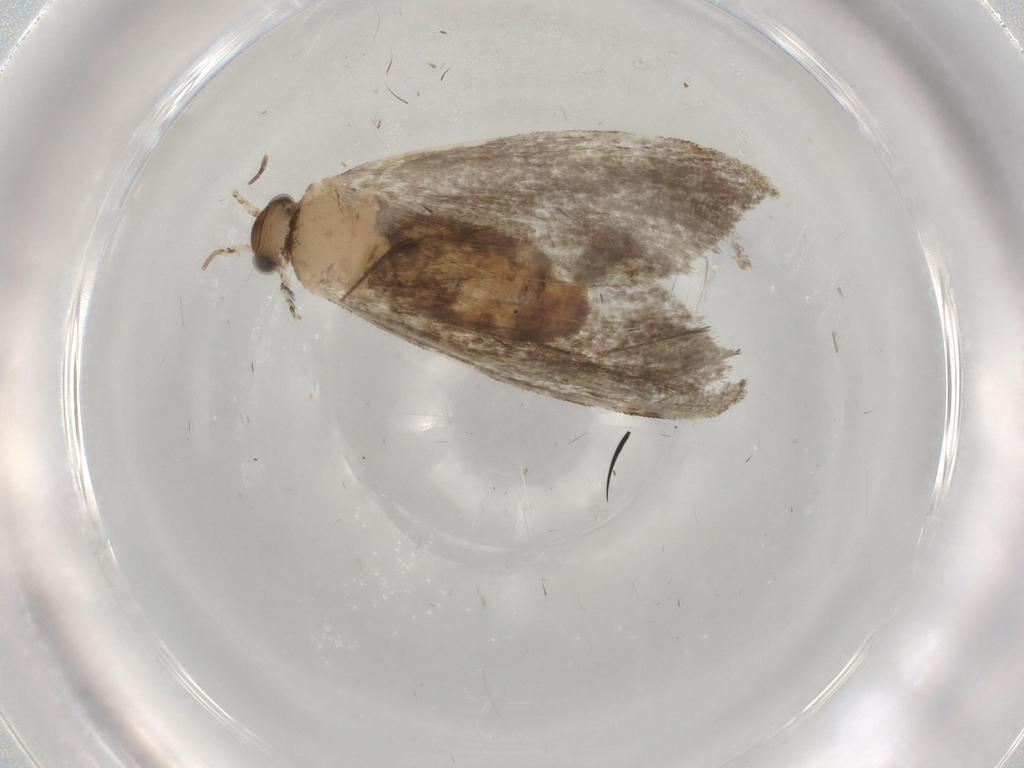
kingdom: Animalia
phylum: Arthropoda
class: Insecta
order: Lepidoptera
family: Tineidae
